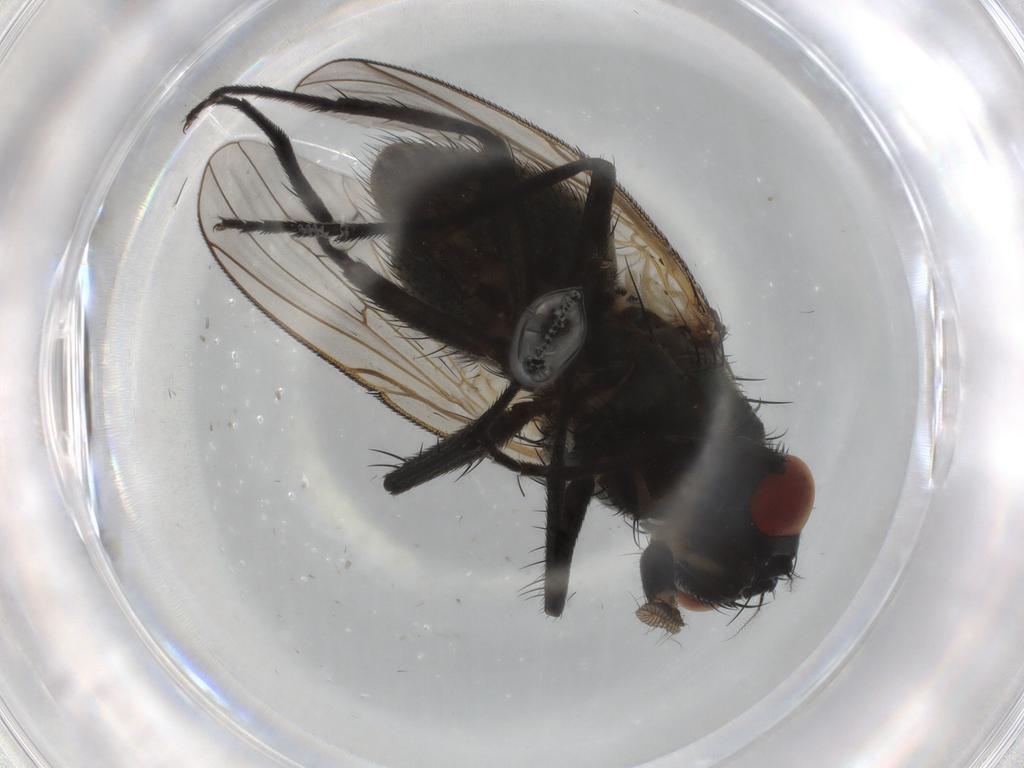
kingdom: Animalia
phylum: Arthropoda
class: Insecta
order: Diptera
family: Muscidae
